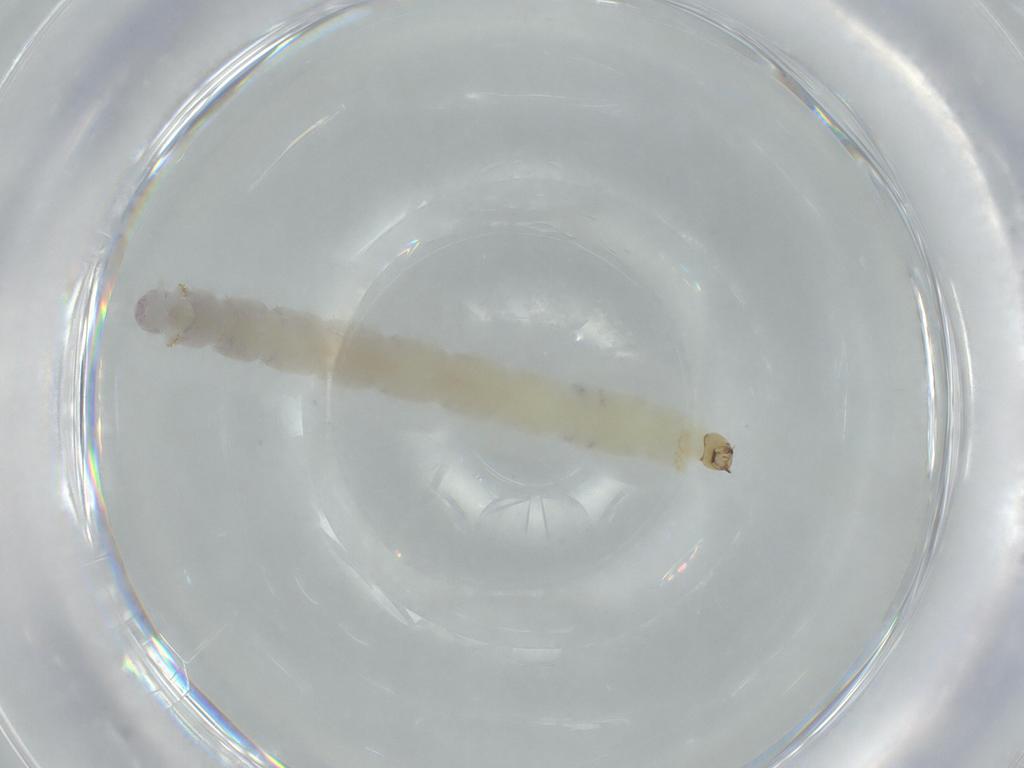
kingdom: Animalia
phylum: Arthropoda
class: Insecta
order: Diptera
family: Chironomidae
